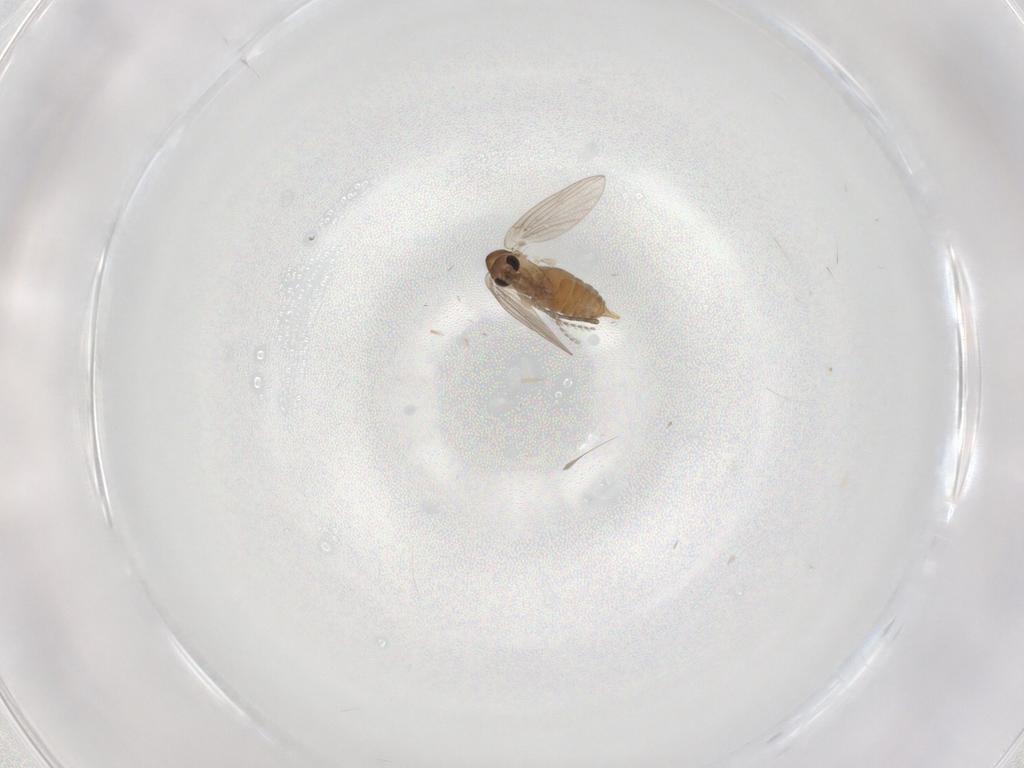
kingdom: Animalia
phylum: Arthropoda
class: Insecta
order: Diptera
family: Psychodidae
